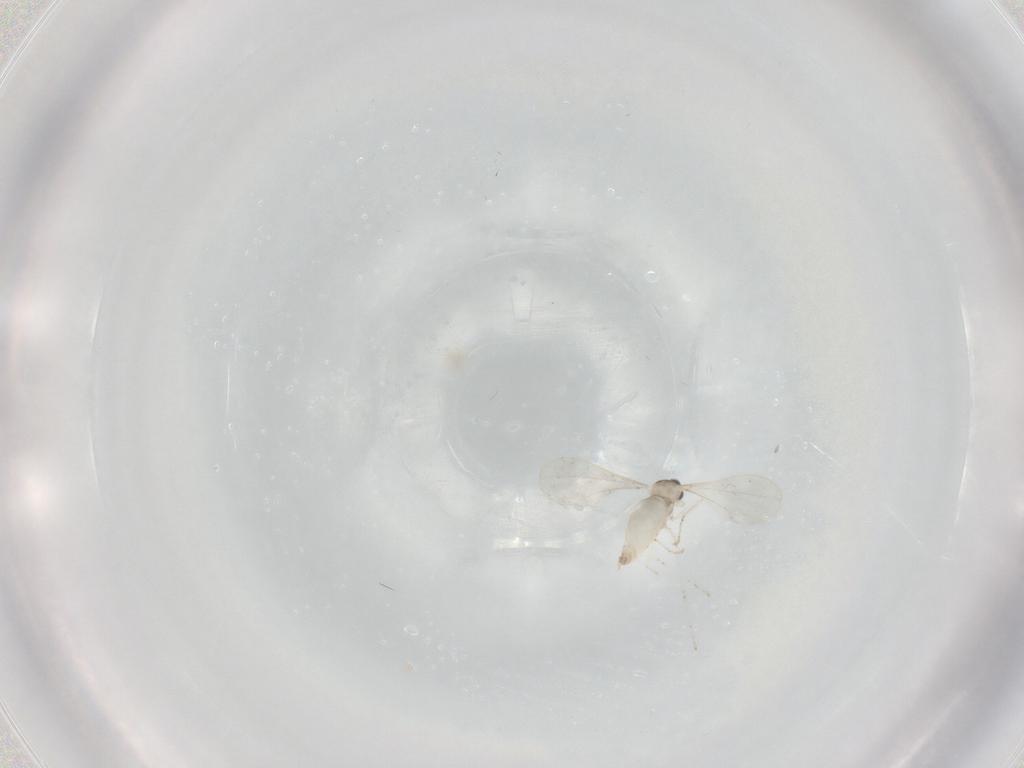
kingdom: Animalia
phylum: Arthropoda
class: Insecta
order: Diptera
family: Cecidomyiidae
